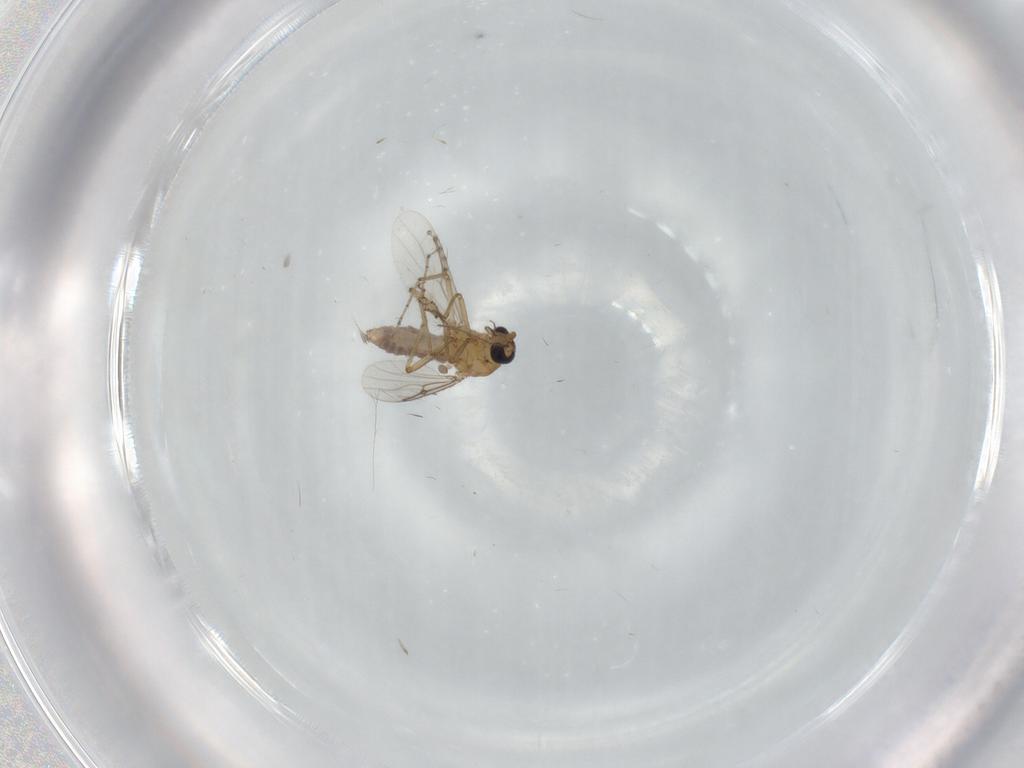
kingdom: Animalia
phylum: Arthropoda
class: Insecta
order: Diptera
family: Cecidomyiidae
